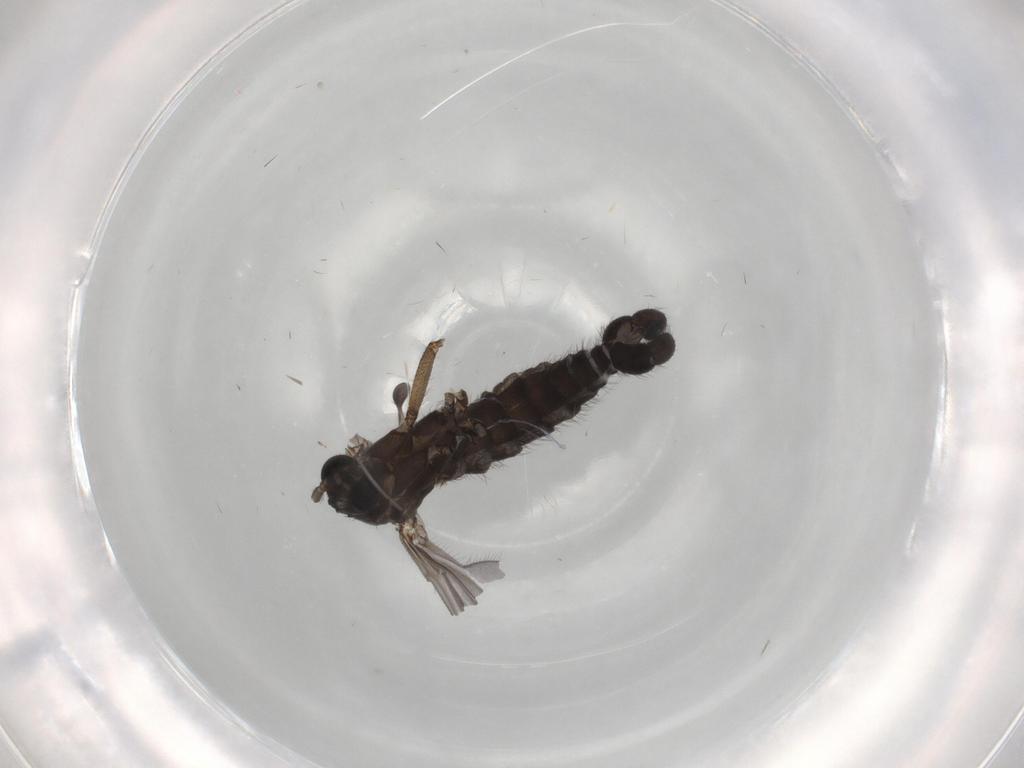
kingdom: Animalia
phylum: Arthropoda
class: Insecta
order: Diptera
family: Sciaridae
